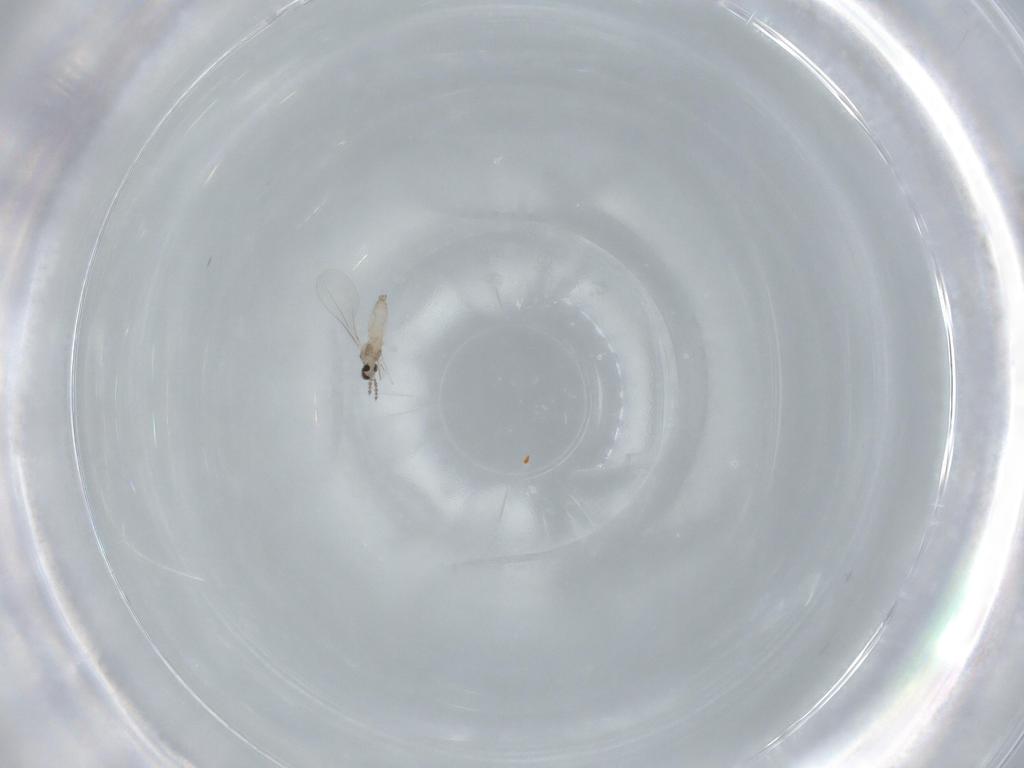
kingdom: Animalia
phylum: Arthropoda
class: Insecta
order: Diptera
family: Cecidomyiidae
